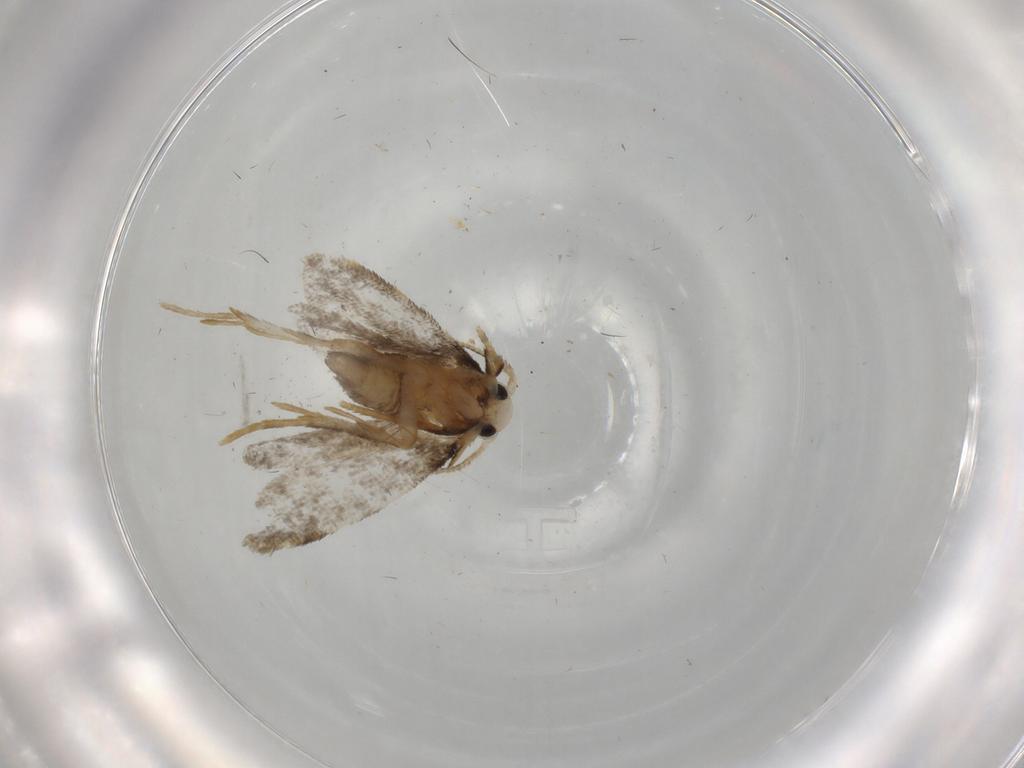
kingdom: Animalia
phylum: Arthropoda
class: Insecta
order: Lepidoptera
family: Psychidae
